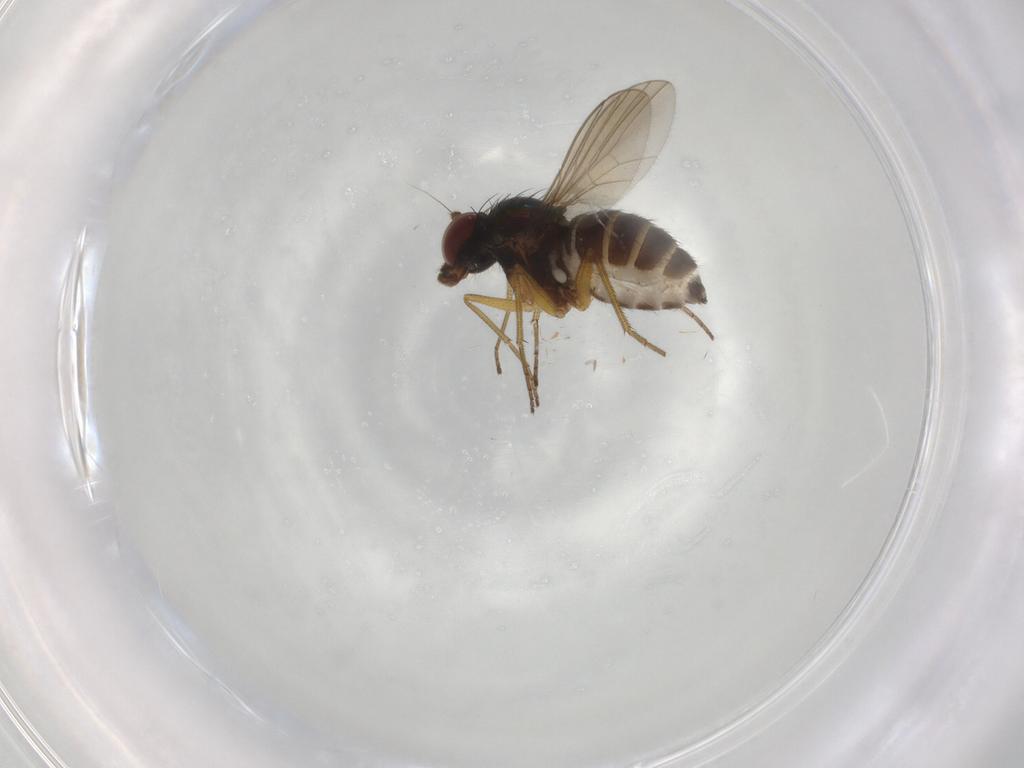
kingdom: Animalia
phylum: Arthropoda
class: Insecta
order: Diptera
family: Dolichopodidae
